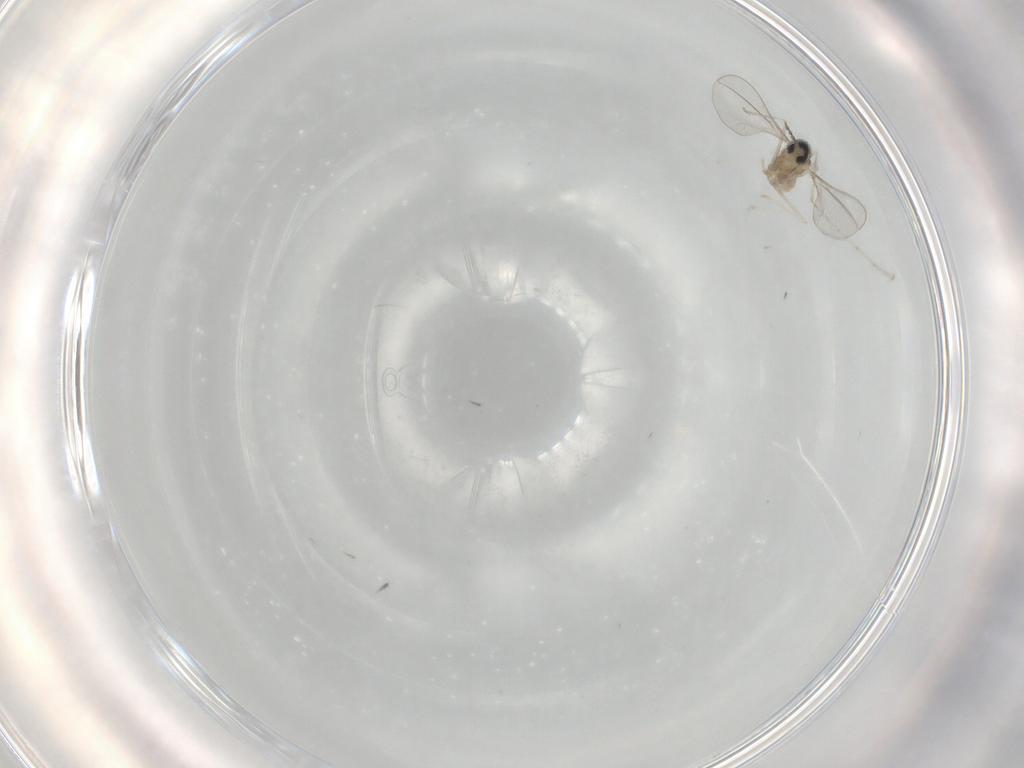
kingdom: Animalia
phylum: Arthropoda
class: Insecta
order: Diptera
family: Cecidomyiidae
